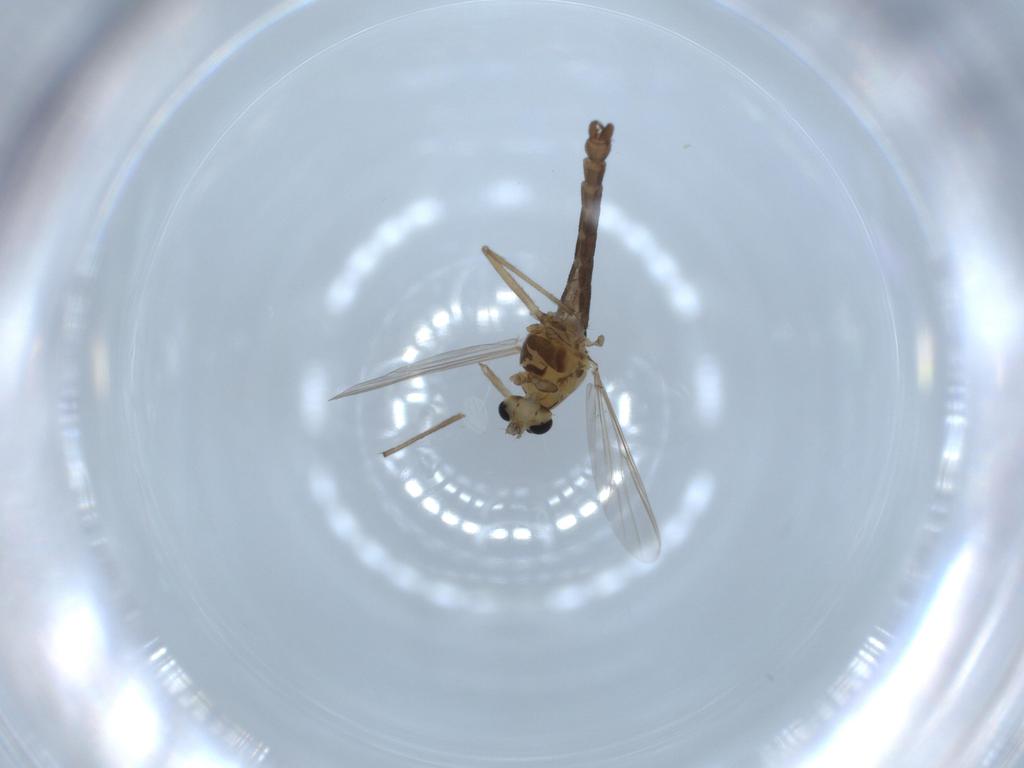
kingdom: Animalia
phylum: Arthropoda
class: Insecta
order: Diptera
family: Chironomidae
